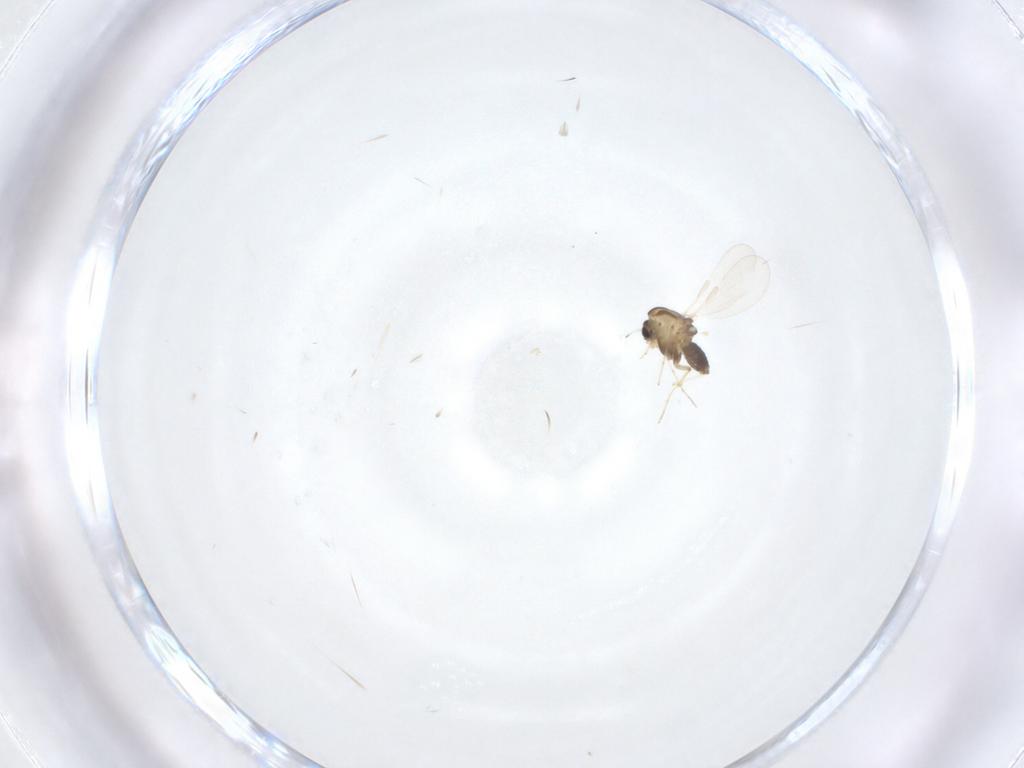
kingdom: Animalia
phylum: Arthropoda
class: Insecta
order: Diptera
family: Chironomidae
